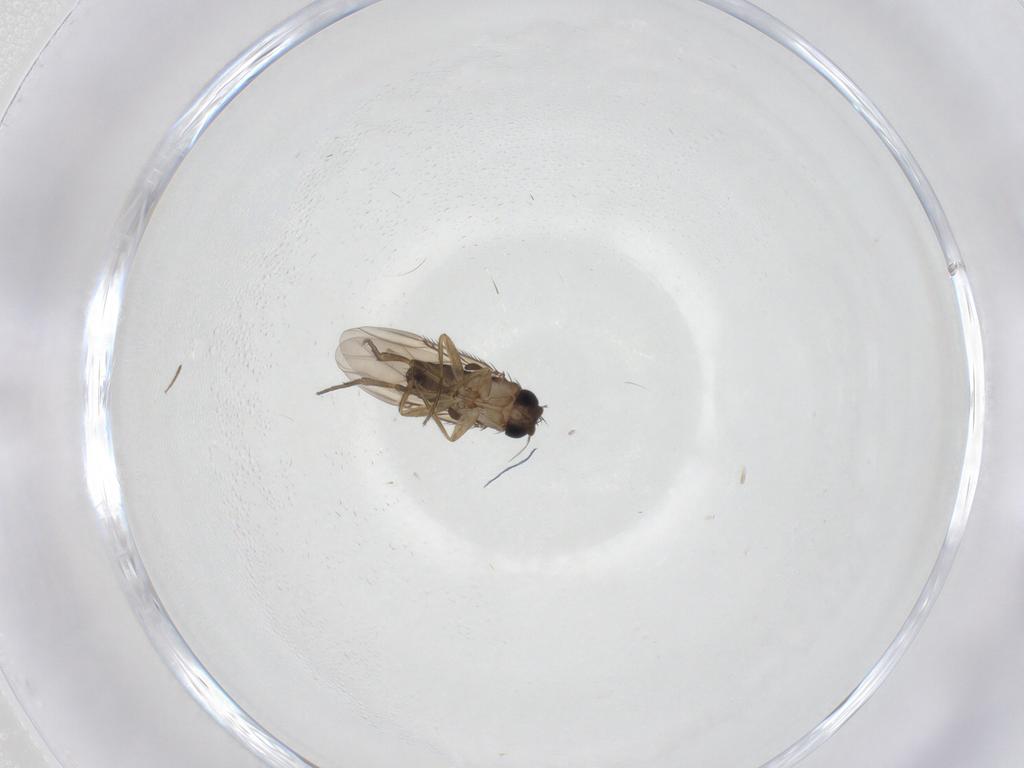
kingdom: Animalia
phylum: Arthropoda
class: Insecta
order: Diptera
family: Phoridae
